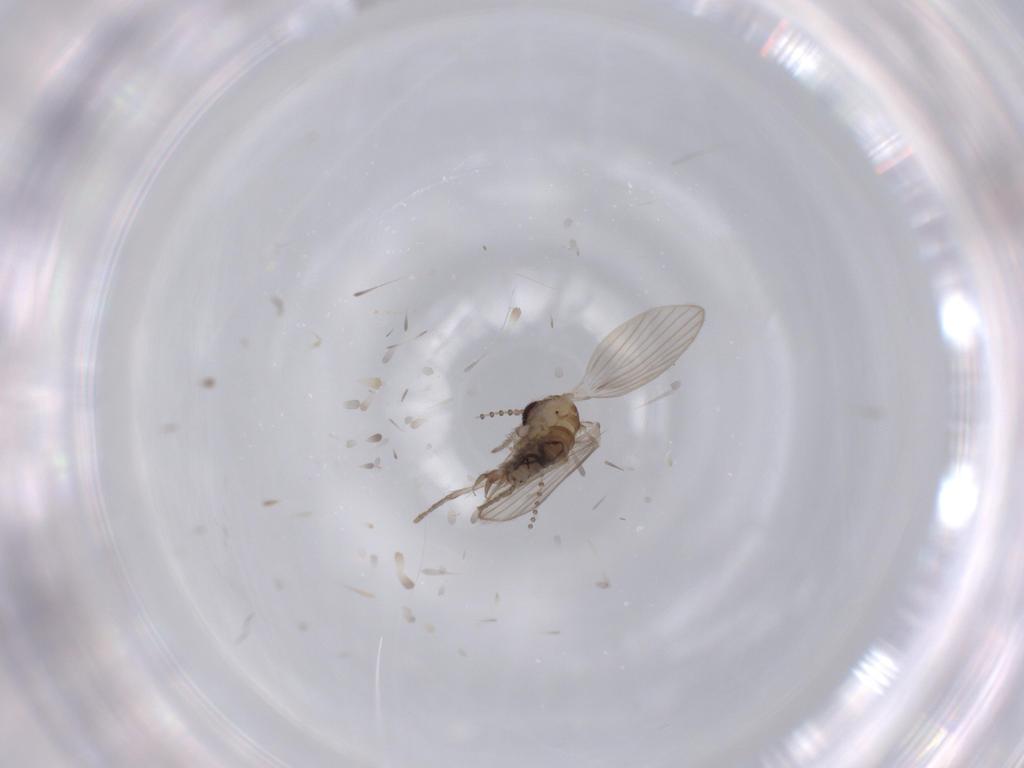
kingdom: Animalia
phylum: Arthropoda
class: Insecta
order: Diptera
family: Psychodidae
